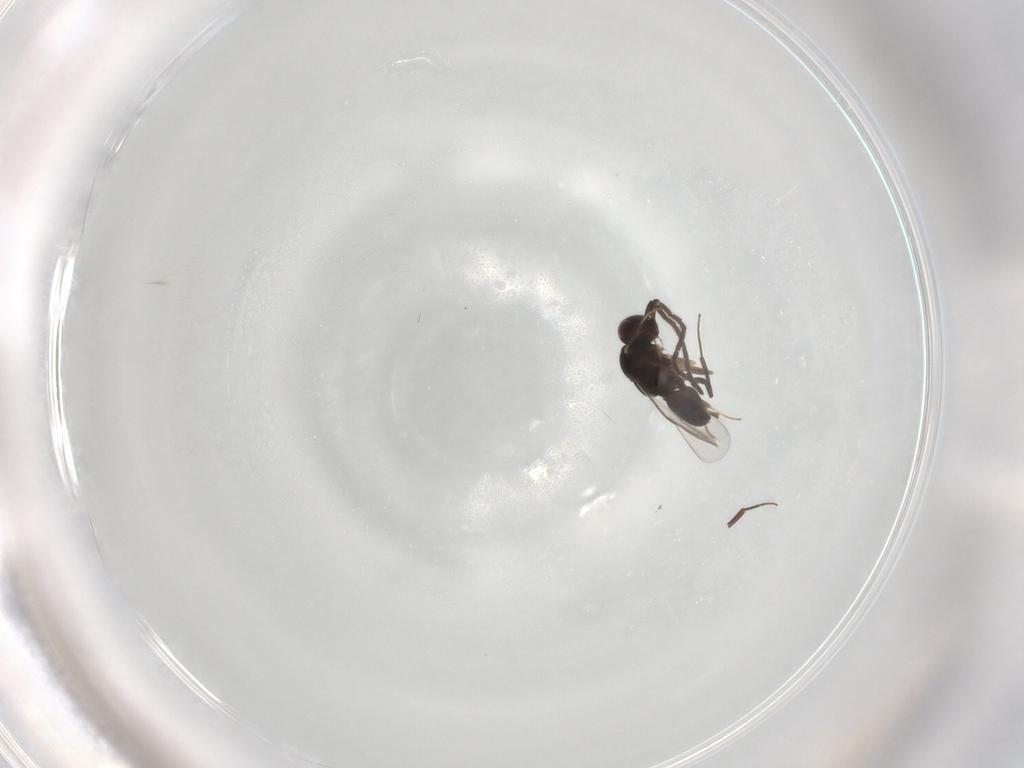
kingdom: Animalia
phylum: Arthropoda
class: Insecta
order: Hymenoptera
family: Megaspilidae
